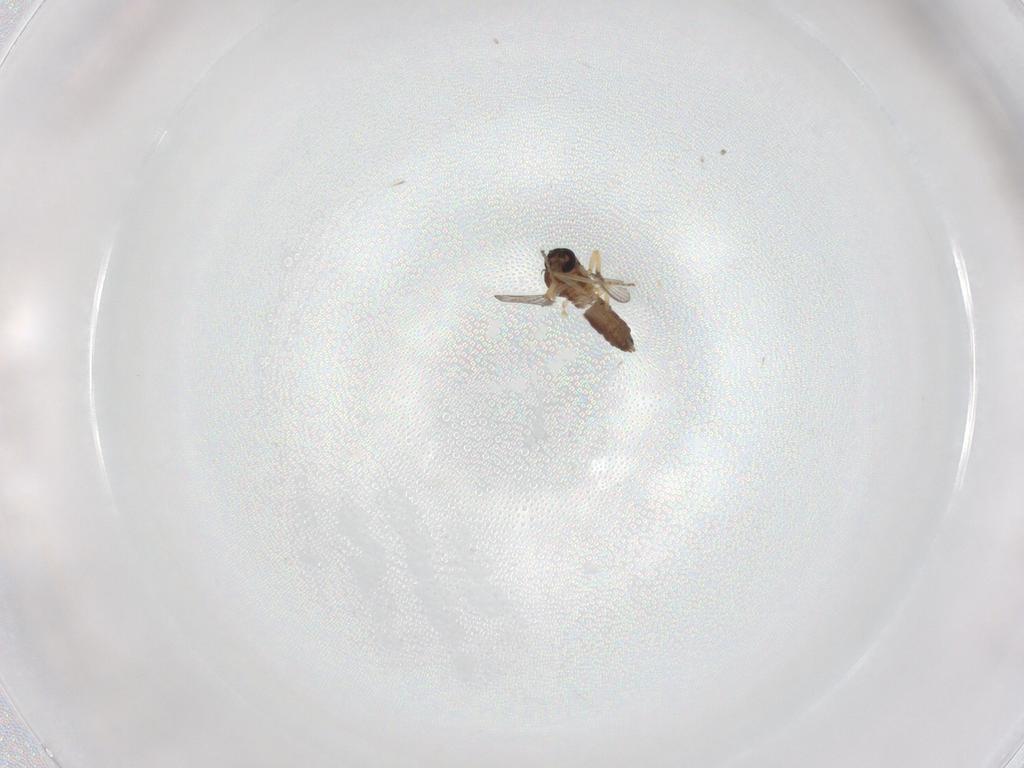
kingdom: Animalia
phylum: Arthropoda
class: Insecta
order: Diptera
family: Ceratopogonidae
